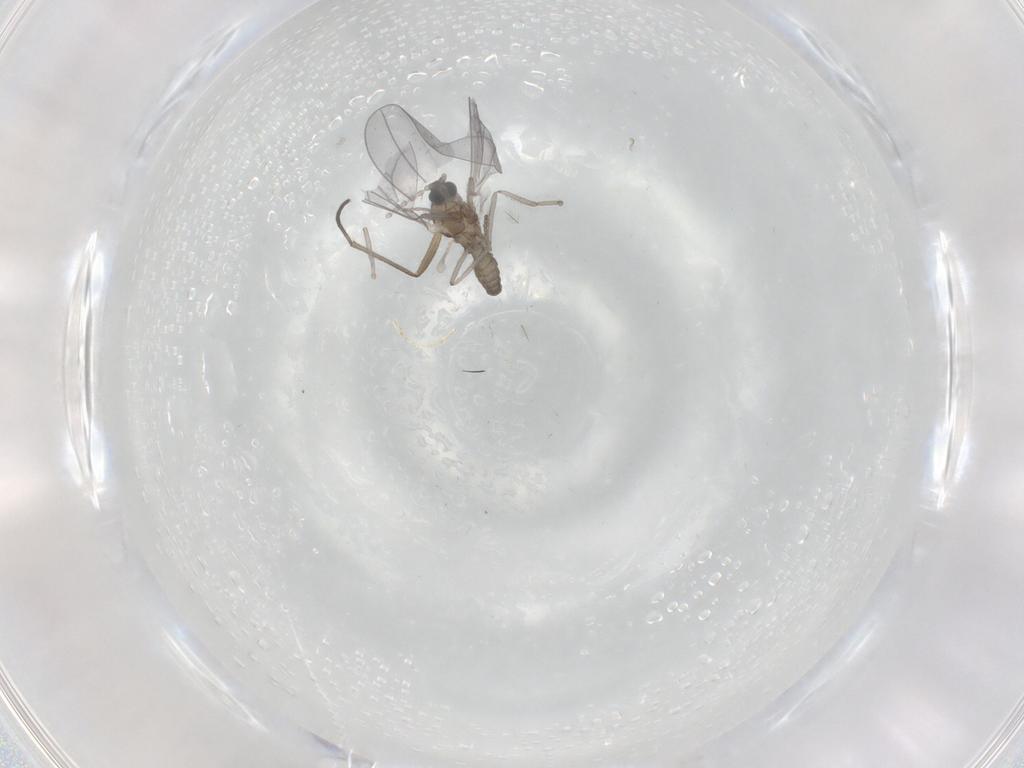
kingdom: Animalia
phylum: Arthropoda
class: Insecta
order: Diptera
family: Cecidomyiidae
